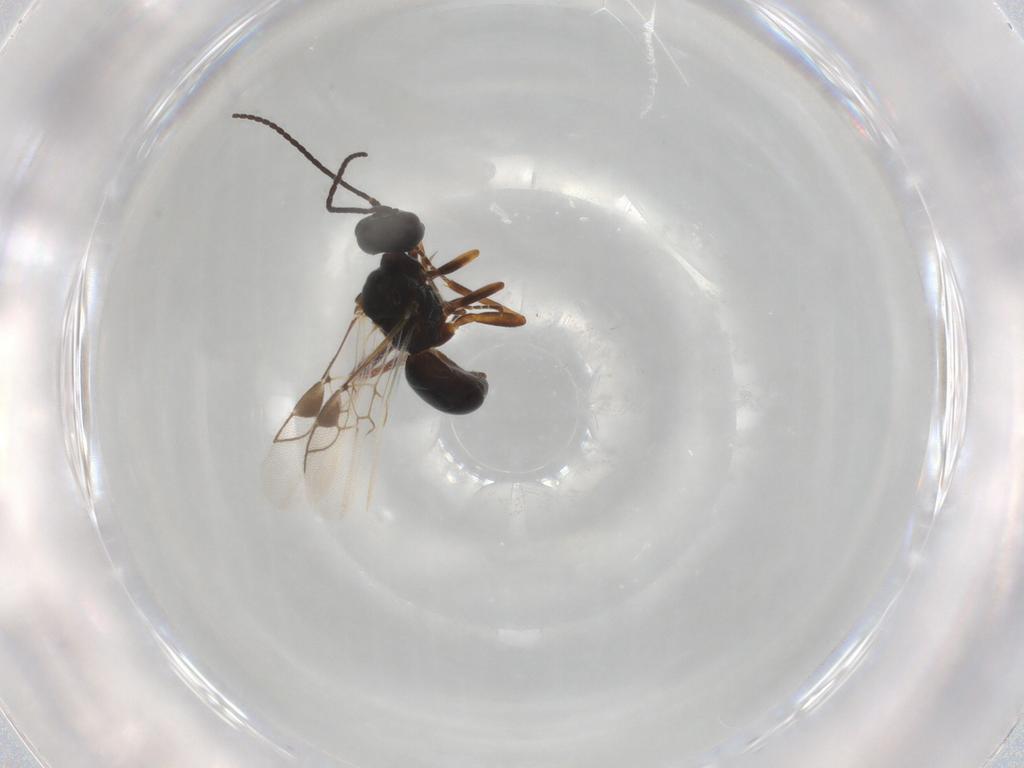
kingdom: Animalia
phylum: Arthropoda
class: Insecta
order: Hymenoptera
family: Braconidae
